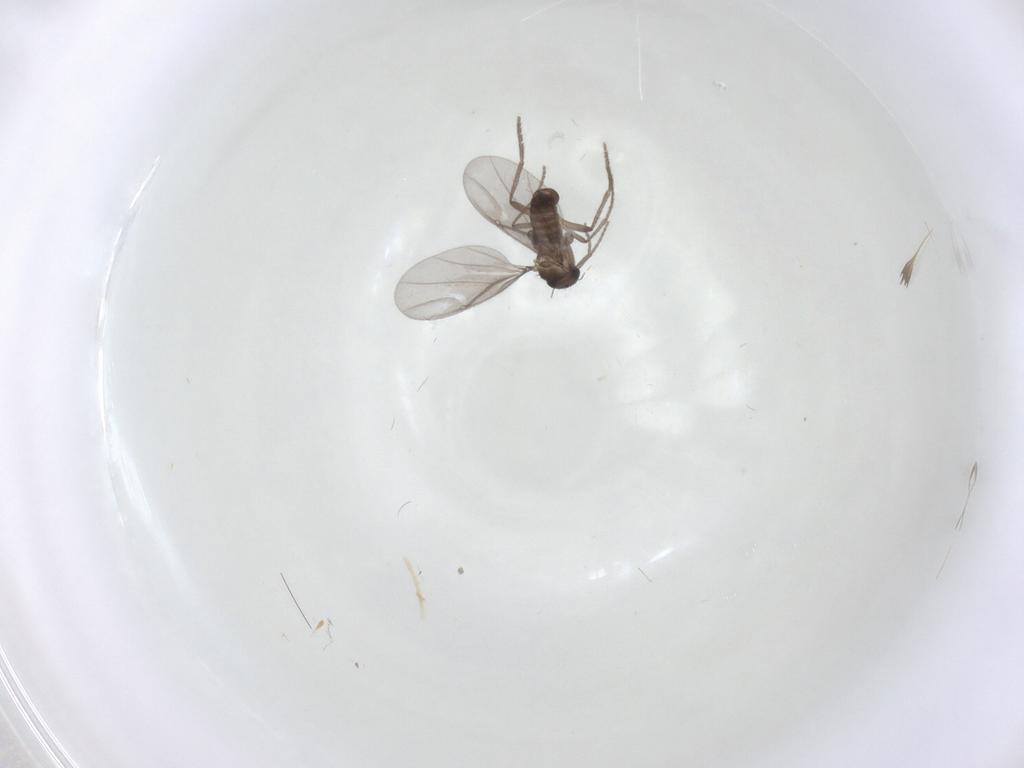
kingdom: Animalia
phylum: Arthropoda
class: Insecta
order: Diptera
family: Phoridae
